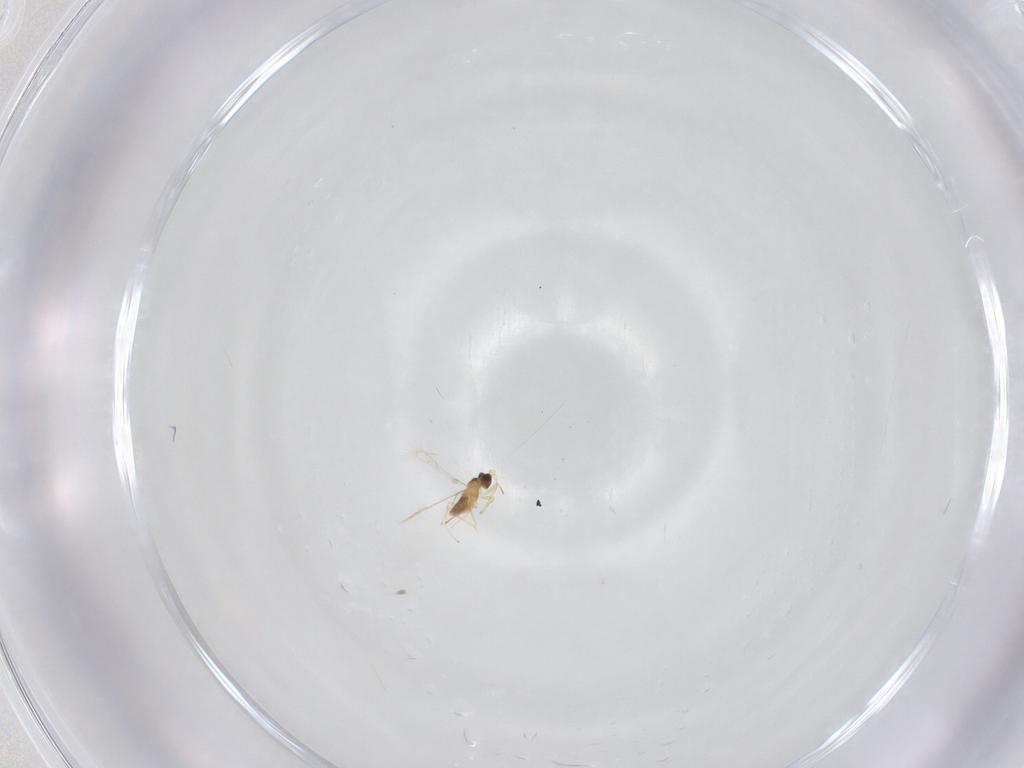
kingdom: Animalia
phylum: Arthropoda
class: Insecta
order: Hymenoptera
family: Mymaridae
